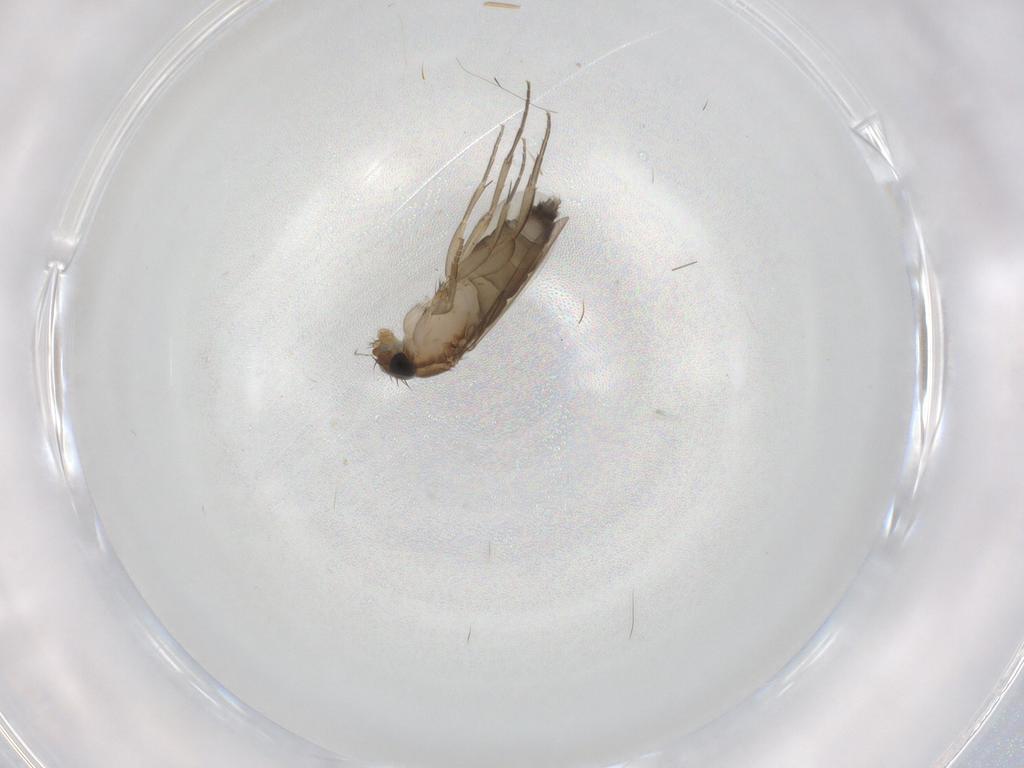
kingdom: Animalia
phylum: Arthropoda
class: Insecta
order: Diptera
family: Phoridae
